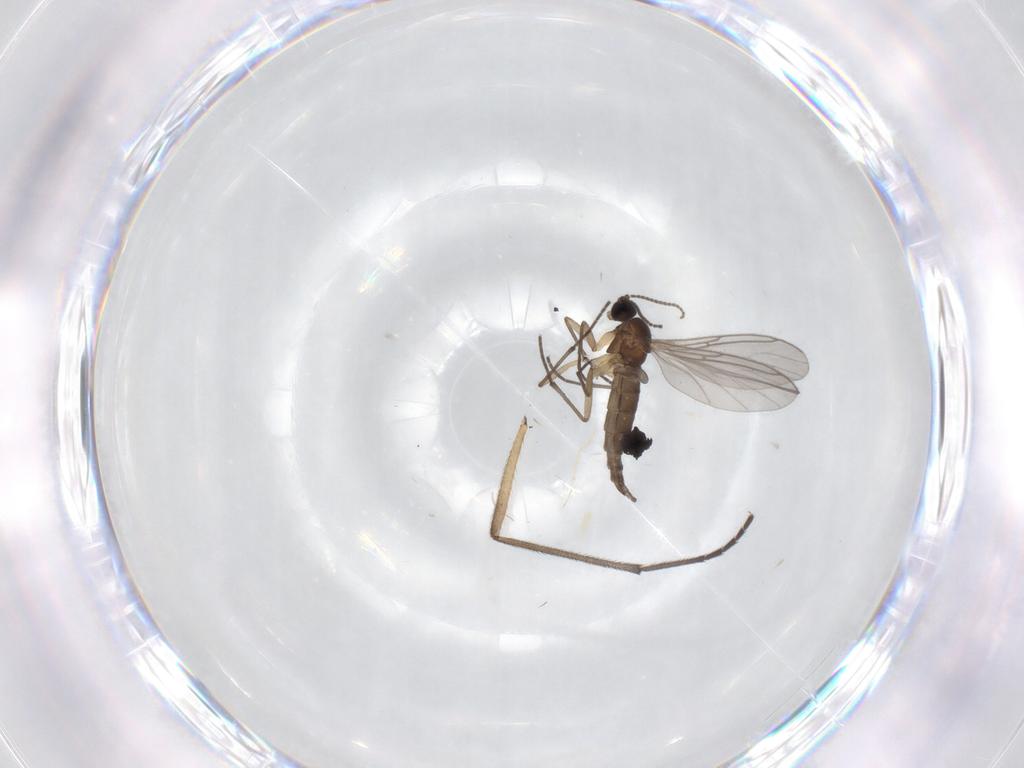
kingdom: Animalia
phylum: Arthropoda
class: Insecta
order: Diptera
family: Sciaridae
